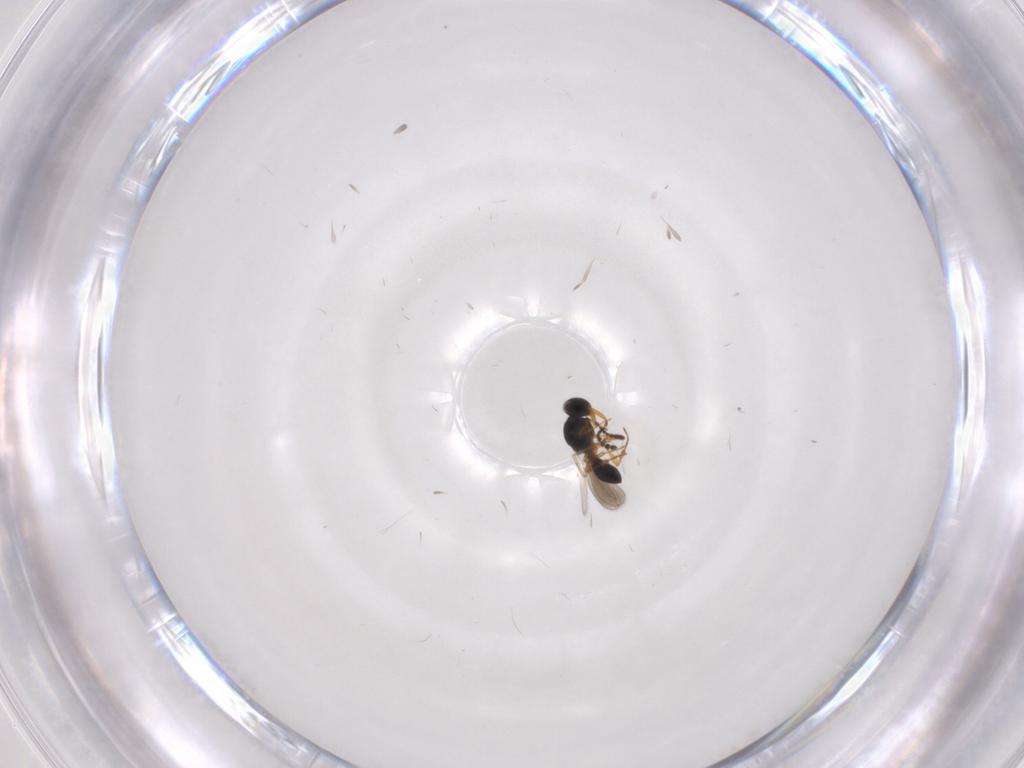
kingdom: Animalia
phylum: Arthropoda
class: Insecta
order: Hymenoptera
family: Platygastridae
